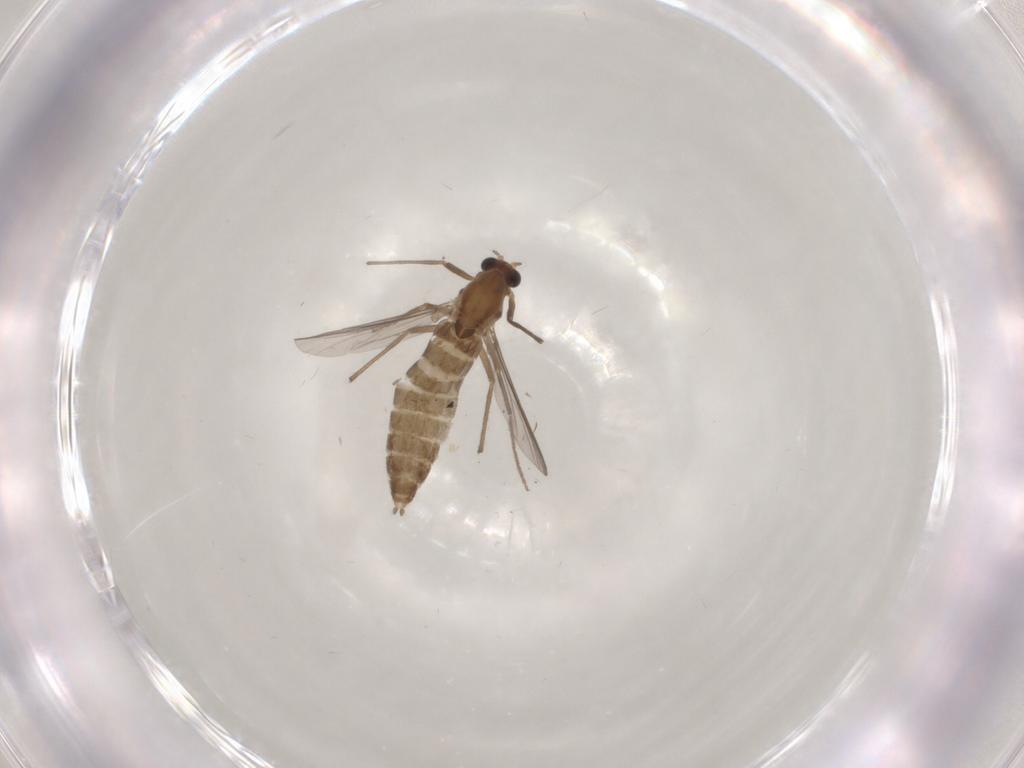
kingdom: Animalia
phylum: Arthropoda
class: Insecta
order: Diptera
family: Chironomidae
